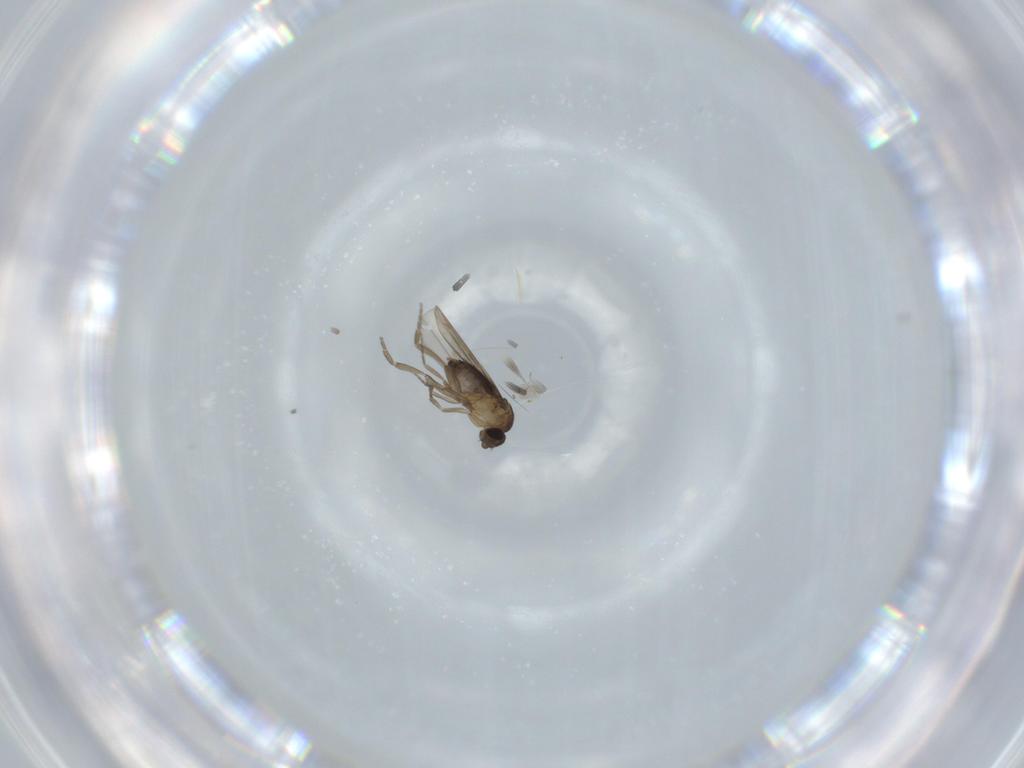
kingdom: Animalia
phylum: Arthropoda
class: Insecta
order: Diptera
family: Phoridae
